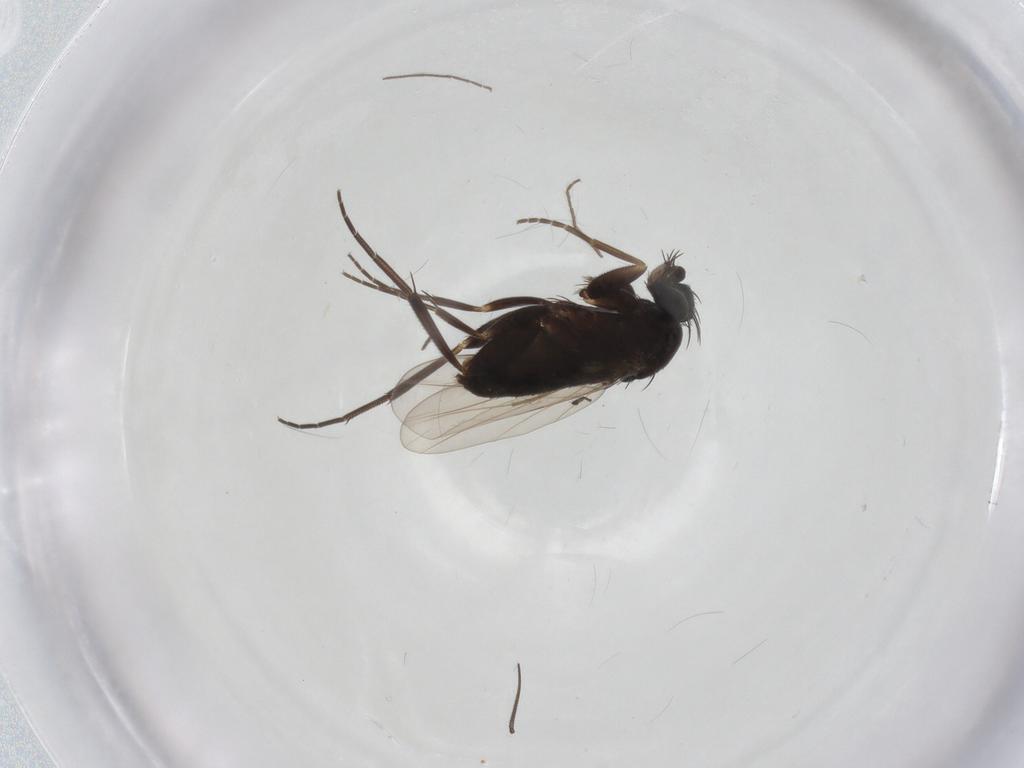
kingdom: Animalia
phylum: Arthropoda
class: Insecta
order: Diptera
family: Phoridae
